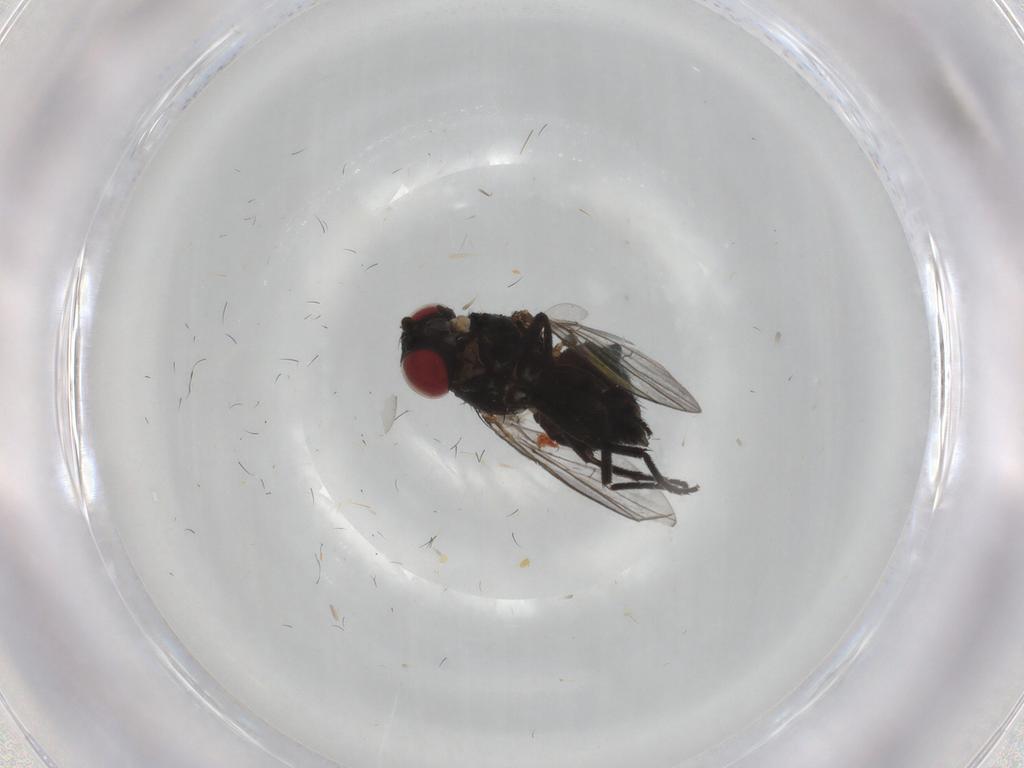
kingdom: Animalia
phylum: Arthropoda
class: Insecta
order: Diptera
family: Agromyzidae
